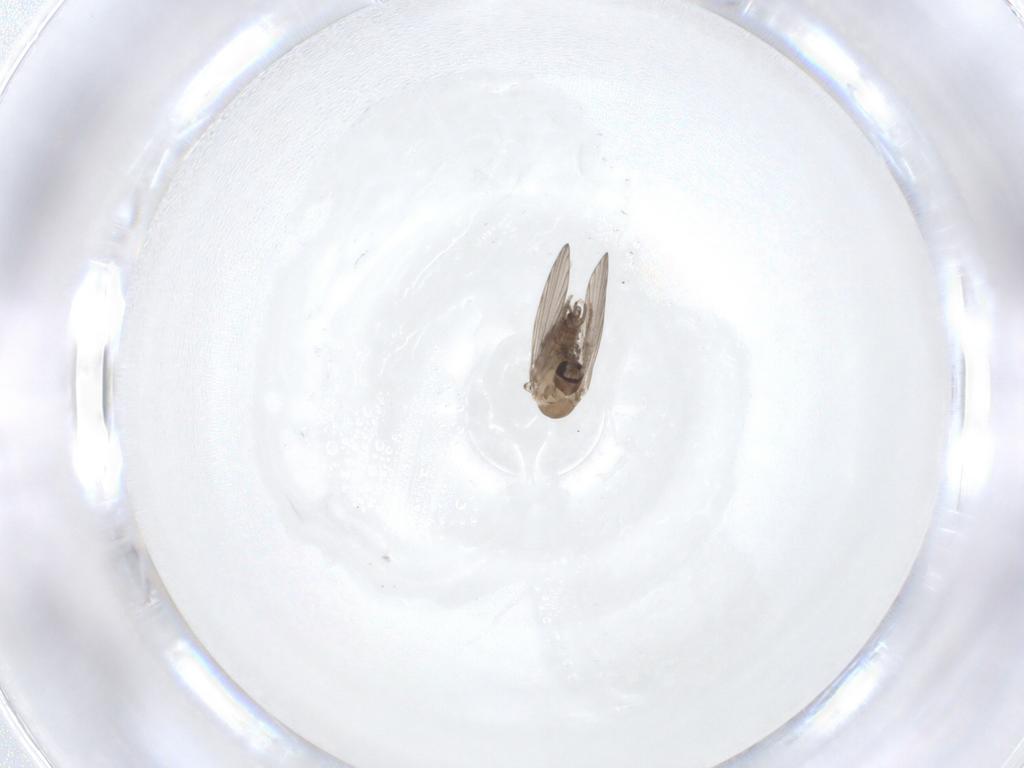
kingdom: Animalia
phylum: Arthropoda
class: Insecta
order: Diptera
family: Psychodidae
